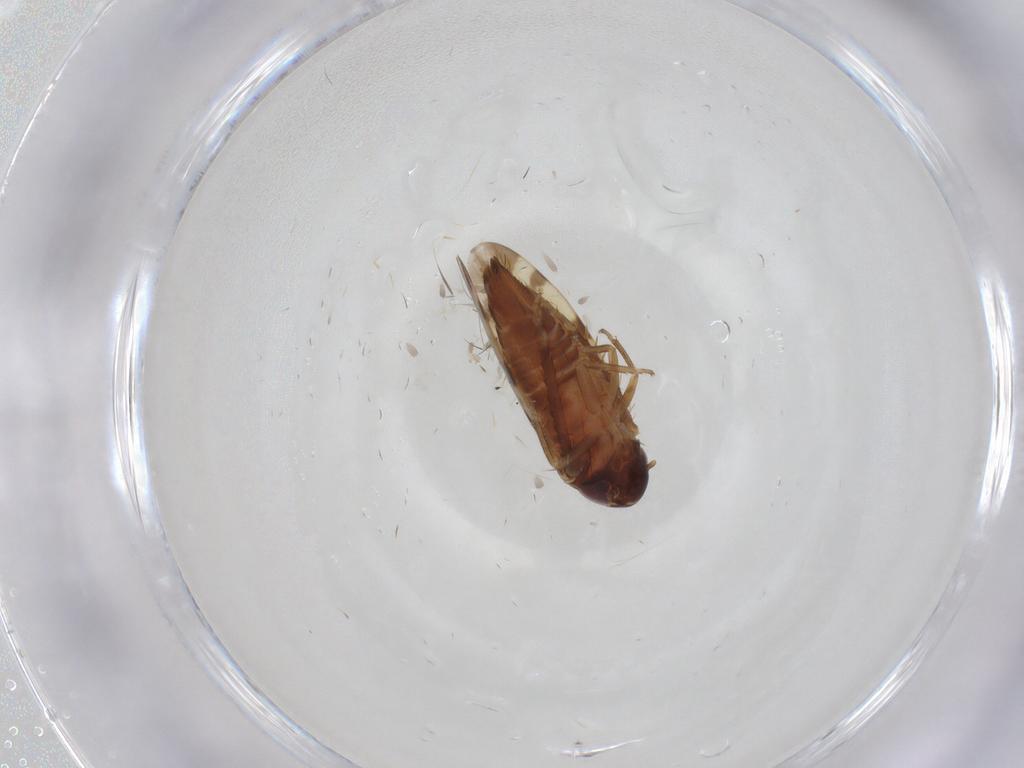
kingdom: Animalia
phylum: Arthropoda
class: Insecta
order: Hemiptera
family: Cicadellidae
